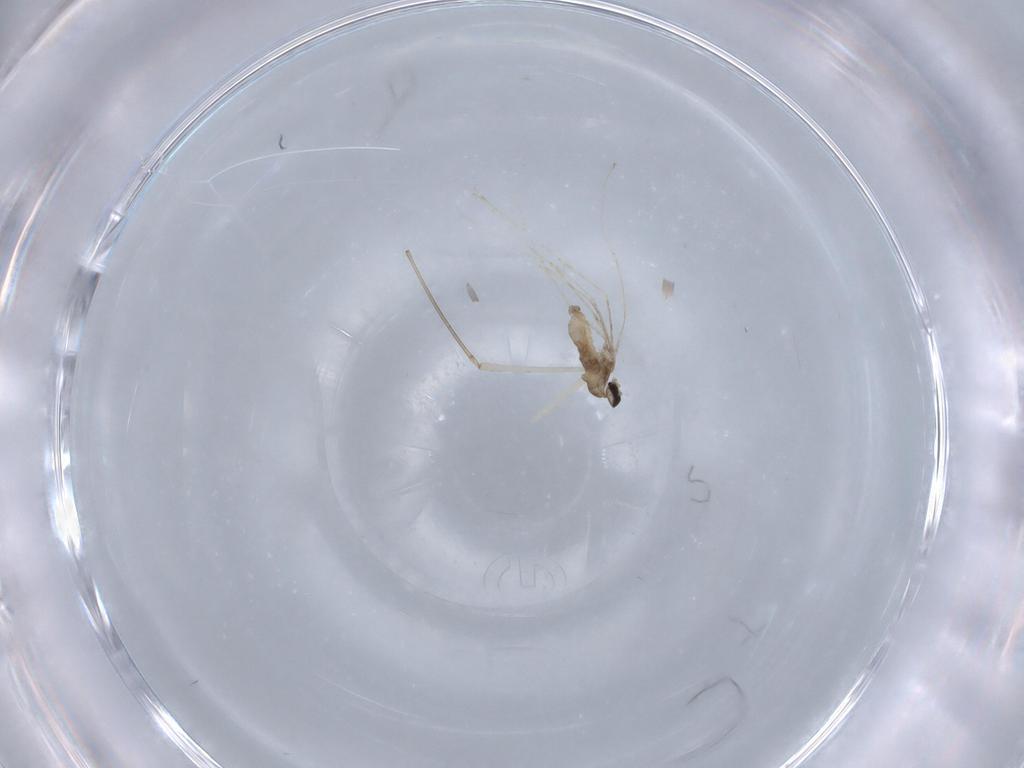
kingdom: Animalia
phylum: Arthropoda
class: Insecta
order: Diptera
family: Cecidomyiidae
